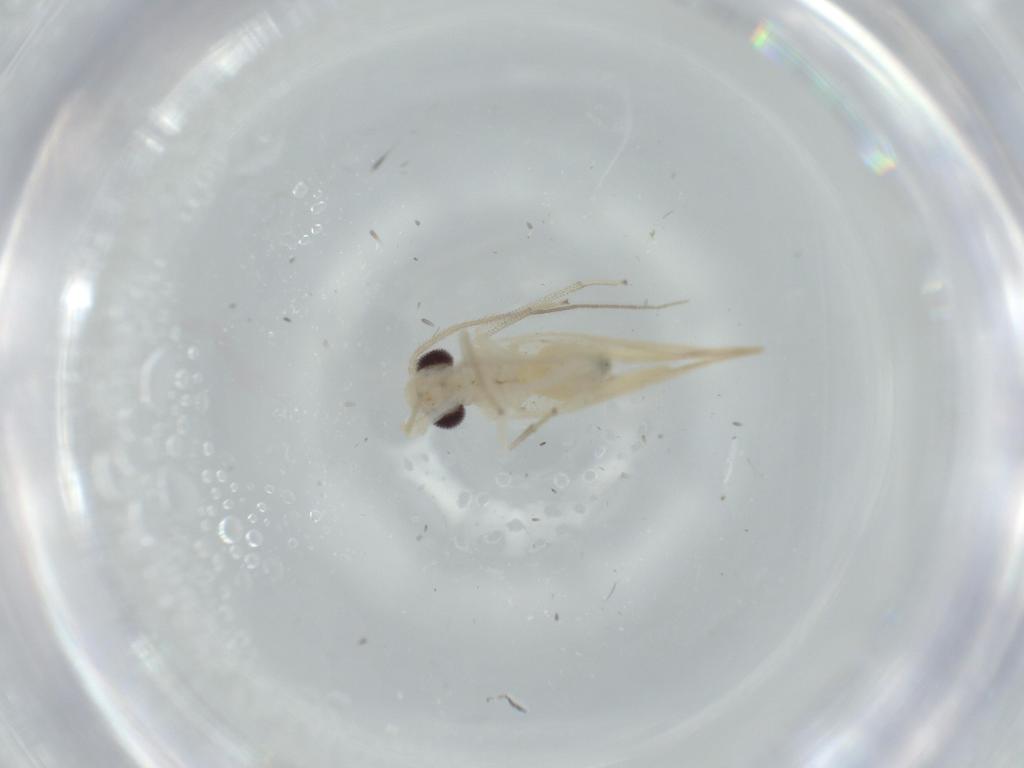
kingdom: Animalia
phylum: Arthropoda
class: Insecta
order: Psocodea
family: Caeciliusidae
